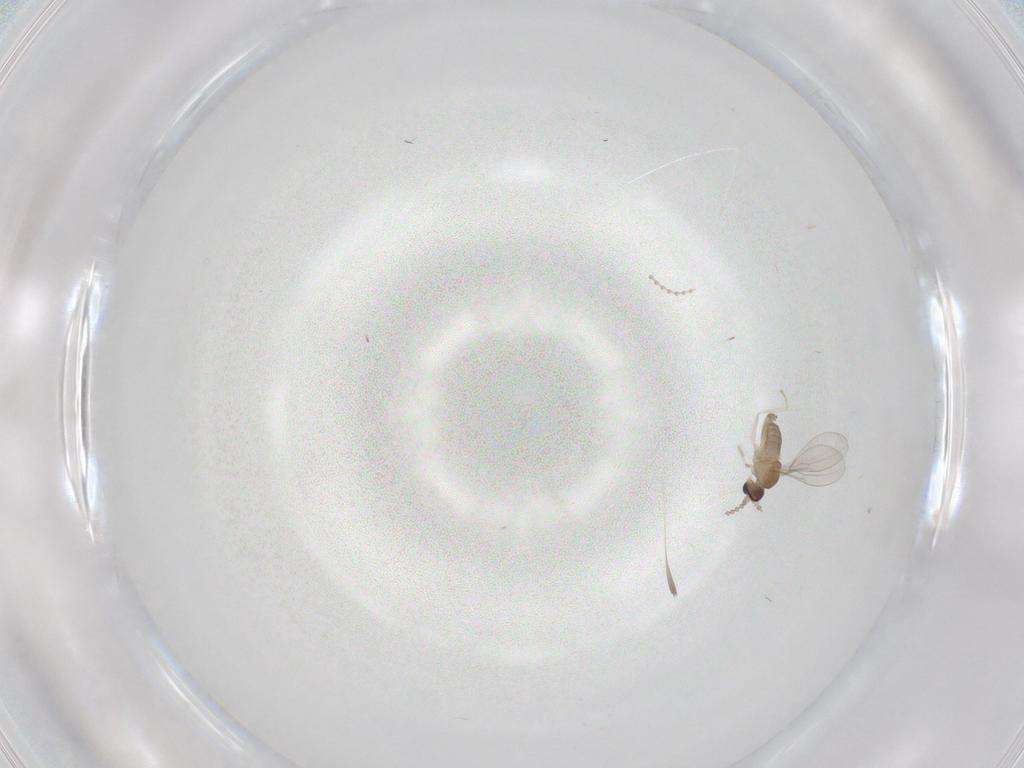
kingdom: Animalia
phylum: Arthropoda
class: Insecta
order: Diptera
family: Cecidomyiidae
